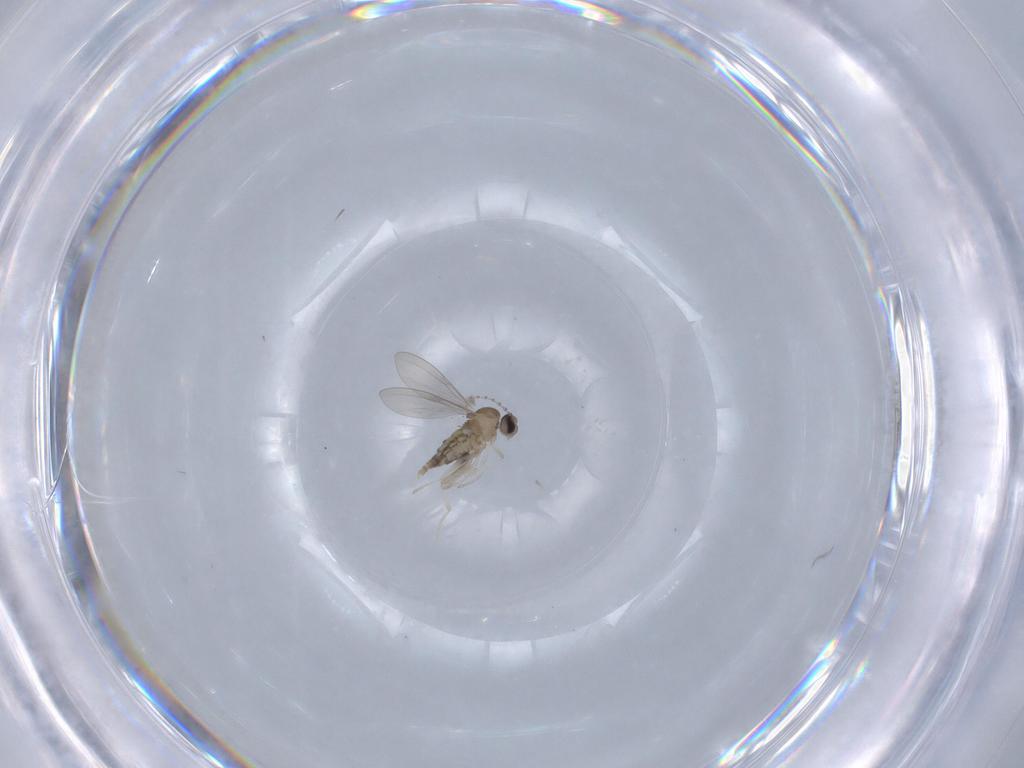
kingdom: Animalia
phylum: Arthropoda
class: Insecta
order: Diptera
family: Cecidomyiidae
